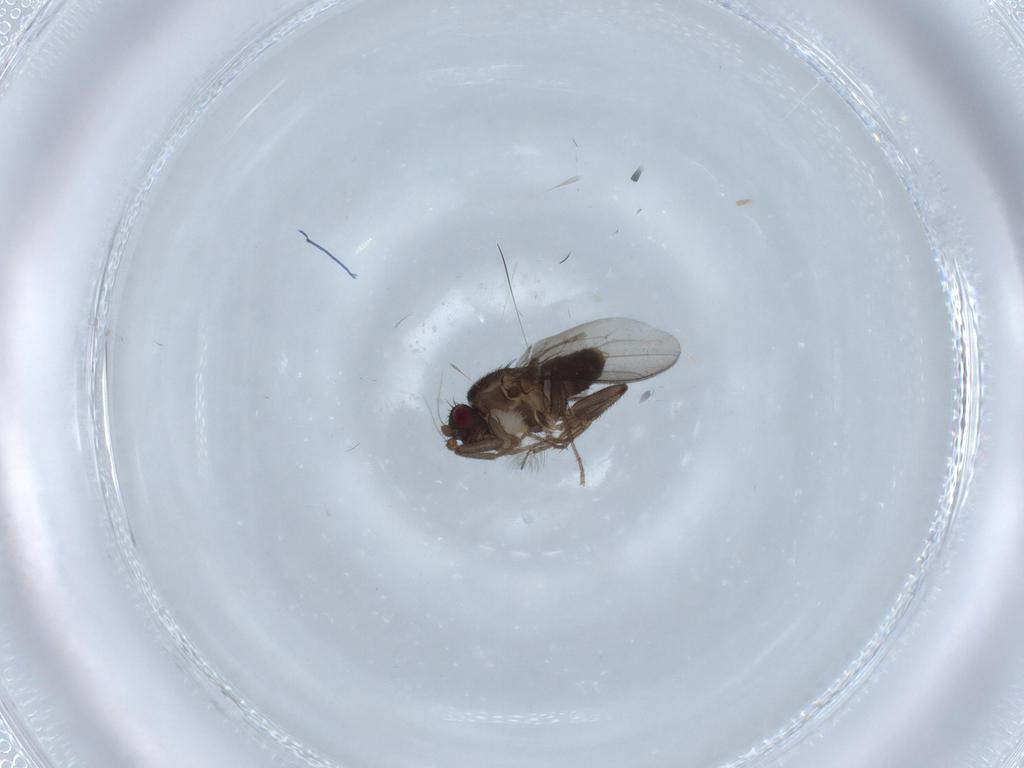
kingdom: Animalia
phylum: Arthropoda
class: Insecta
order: Diptera
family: Sphaeroceridae
